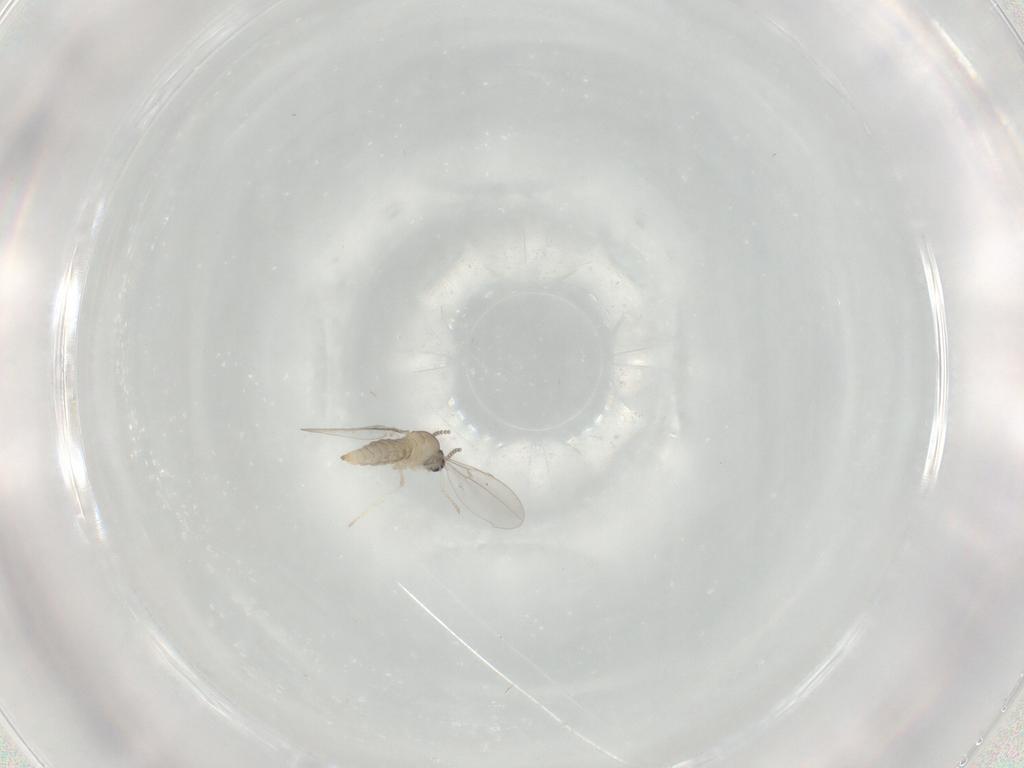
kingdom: Animalia
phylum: Arthropoda
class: Insecta
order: Diptera
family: Cecidomyiidae
